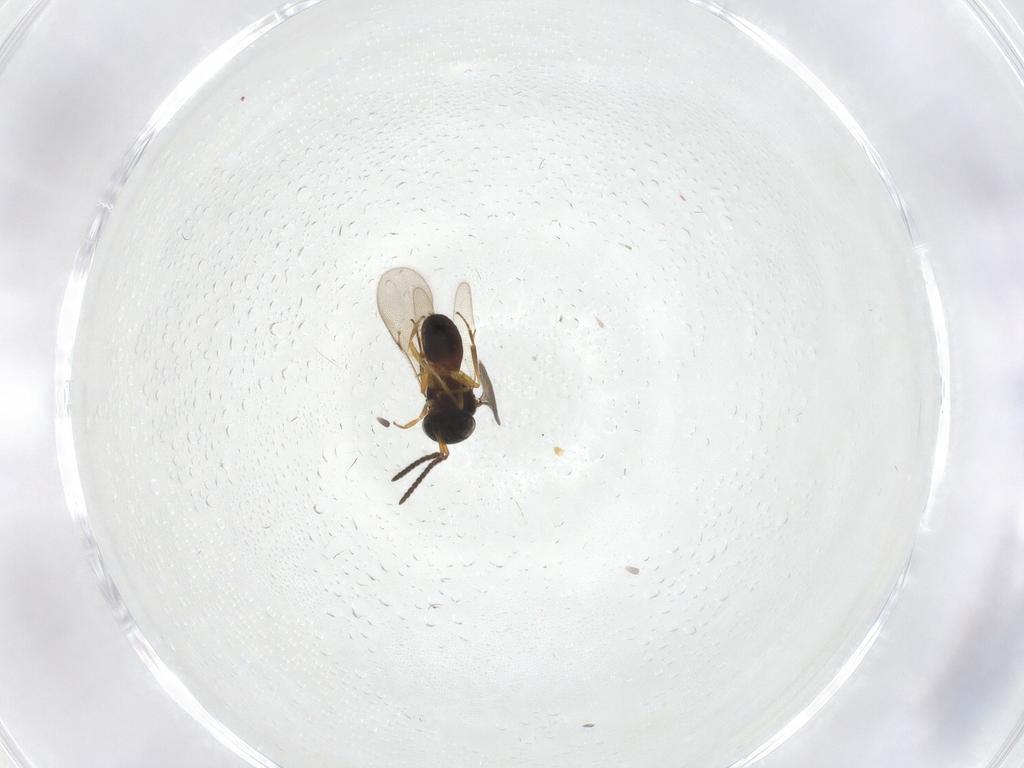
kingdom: Animalia
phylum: Arthropoda
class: Insecta
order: Hymenoptera
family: Scelionidae
